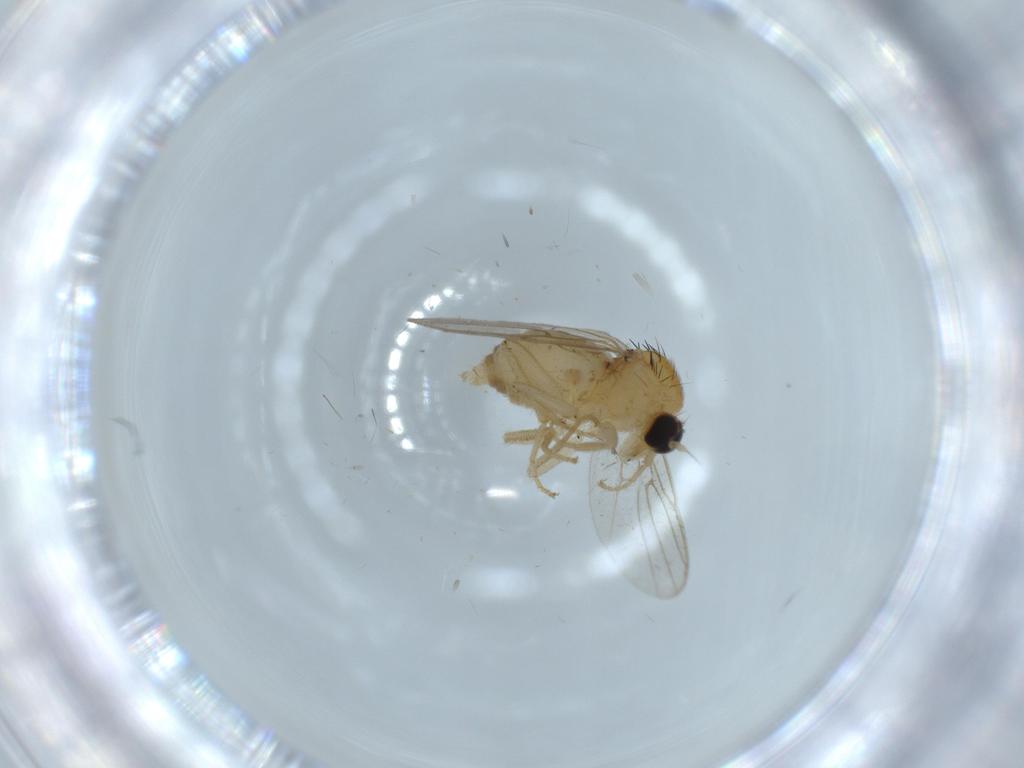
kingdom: Animalia
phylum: Arthropoda
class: Insecta
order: Diptera
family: Hybotidae
